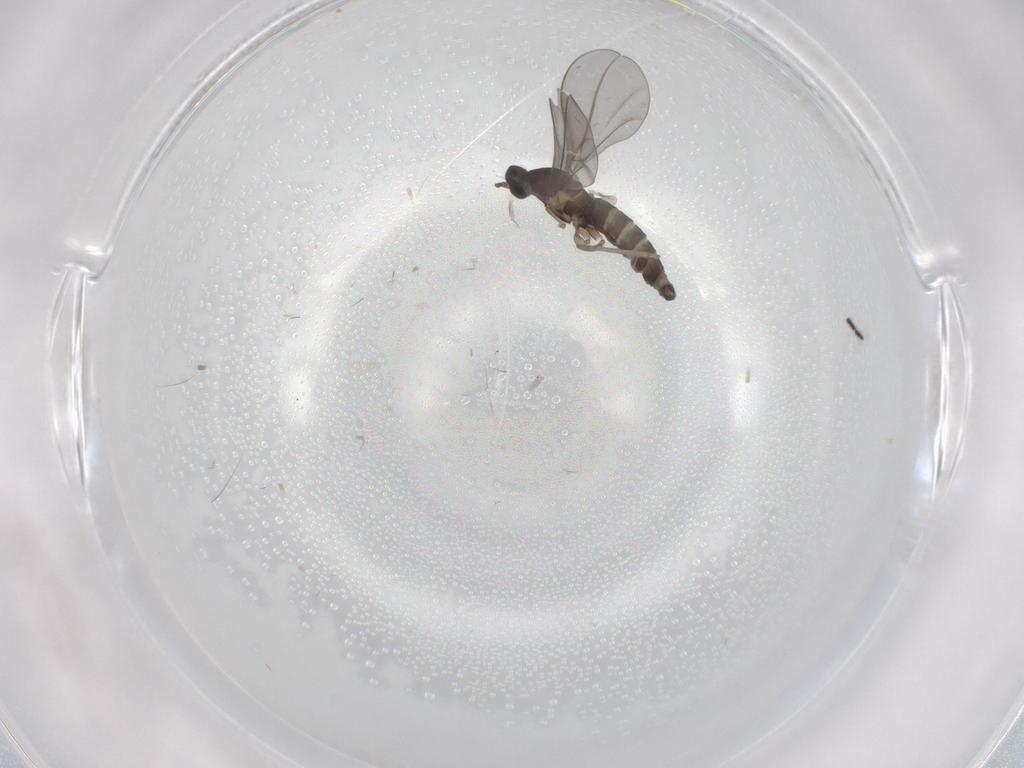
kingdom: Animalia
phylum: Arthropoda
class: Insecta
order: Diptera
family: Cecidomyiidae
